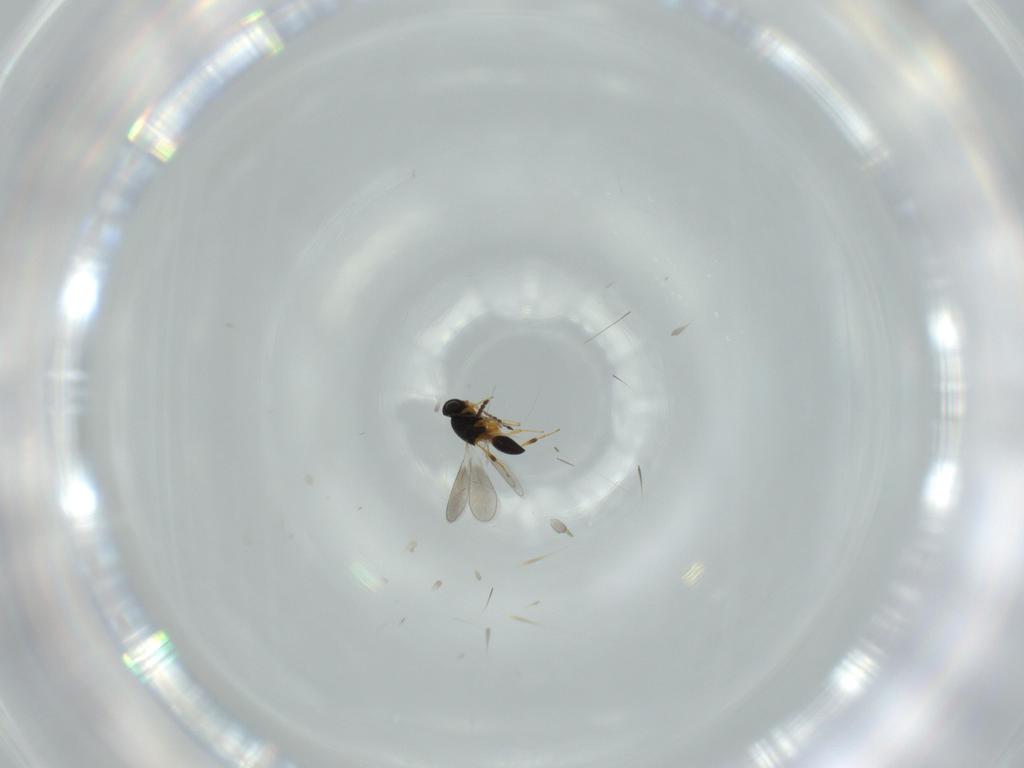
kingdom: Animalia
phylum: Arthropoda
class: Insecta
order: Hymenoptera
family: Platygastridae
